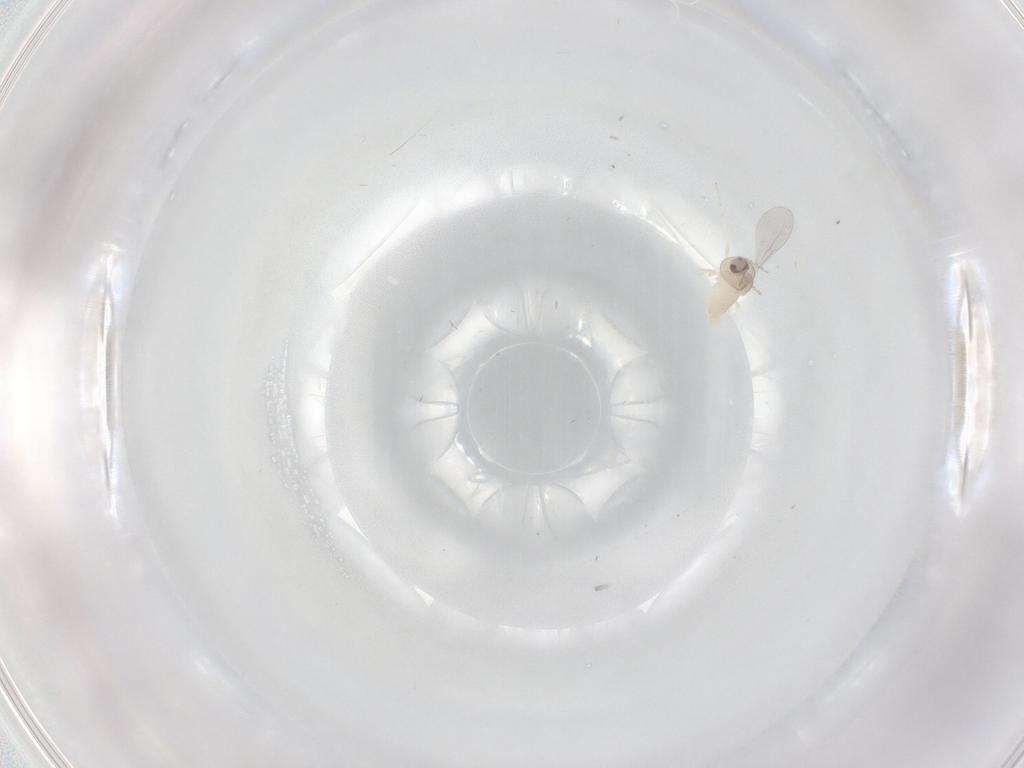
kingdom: Animalia
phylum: Arthropoda
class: Insecta
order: Diptera
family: Cecidomyiidae
